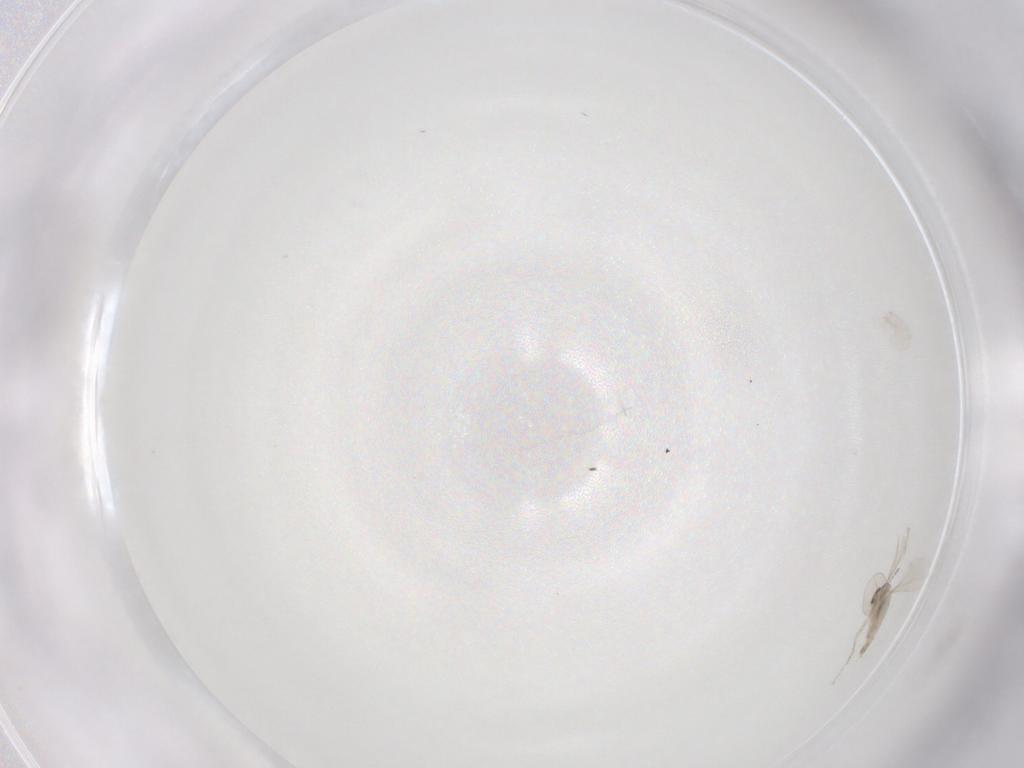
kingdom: Animalia
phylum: Arthropoda
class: Insecta
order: Diptera
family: Cecidomyiidae
